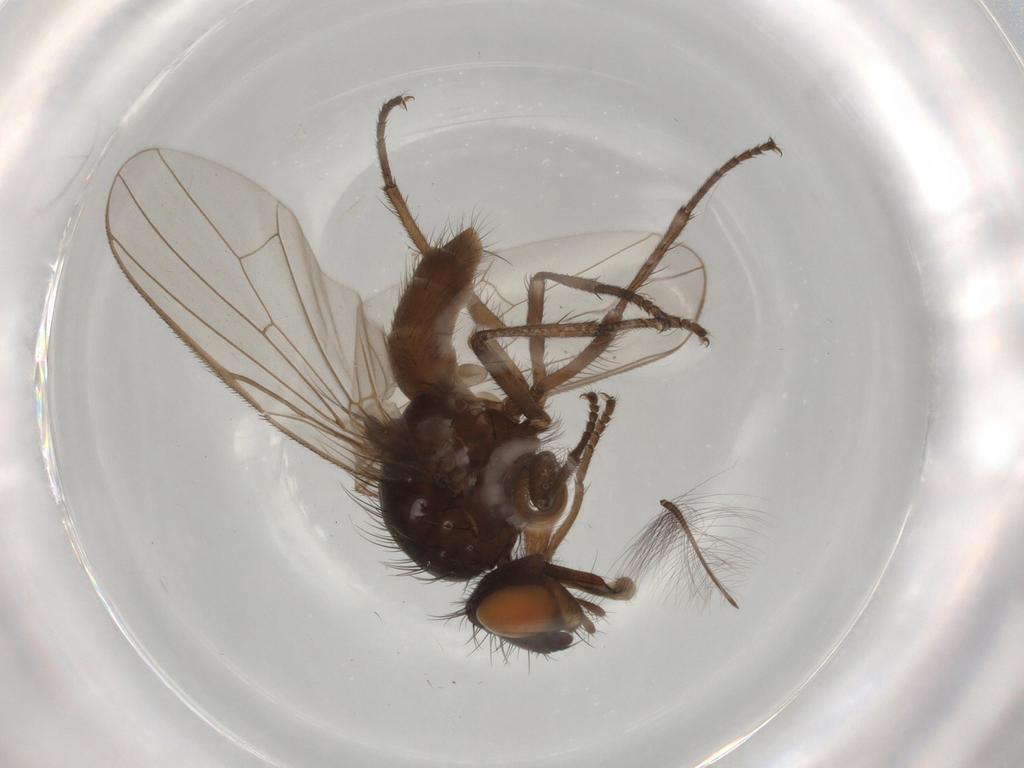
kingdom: Animalia
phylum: Arthropoda
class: Insecta
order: Diptera
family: Anthomyiidae
